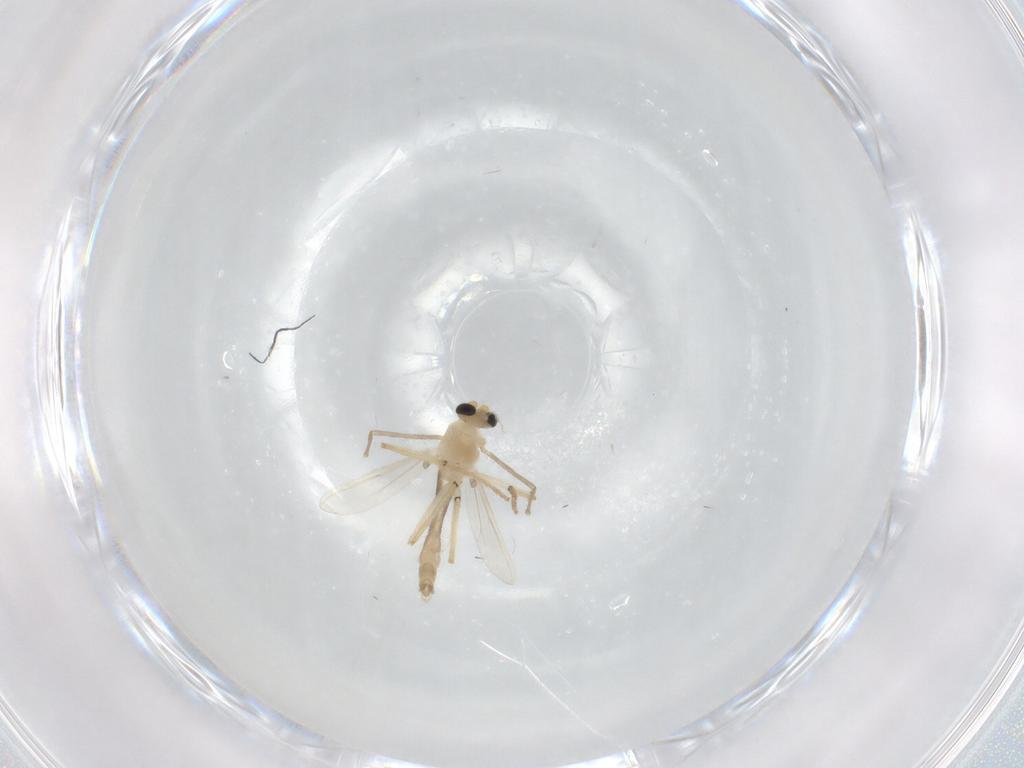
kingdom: Animalia
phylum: Arthropoda
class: Insecta
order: Diptera
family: Chironomidae
